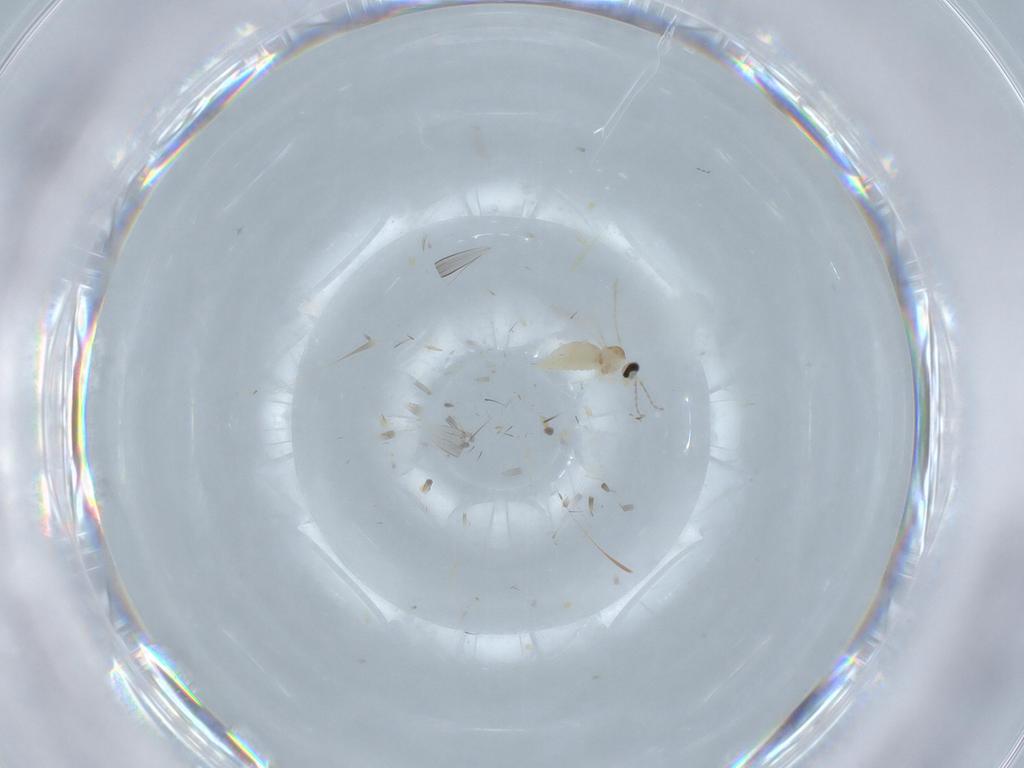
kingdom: Animalia
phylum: Arthropoda
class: Insecta
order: Diptera
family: Cecidomyiidae
